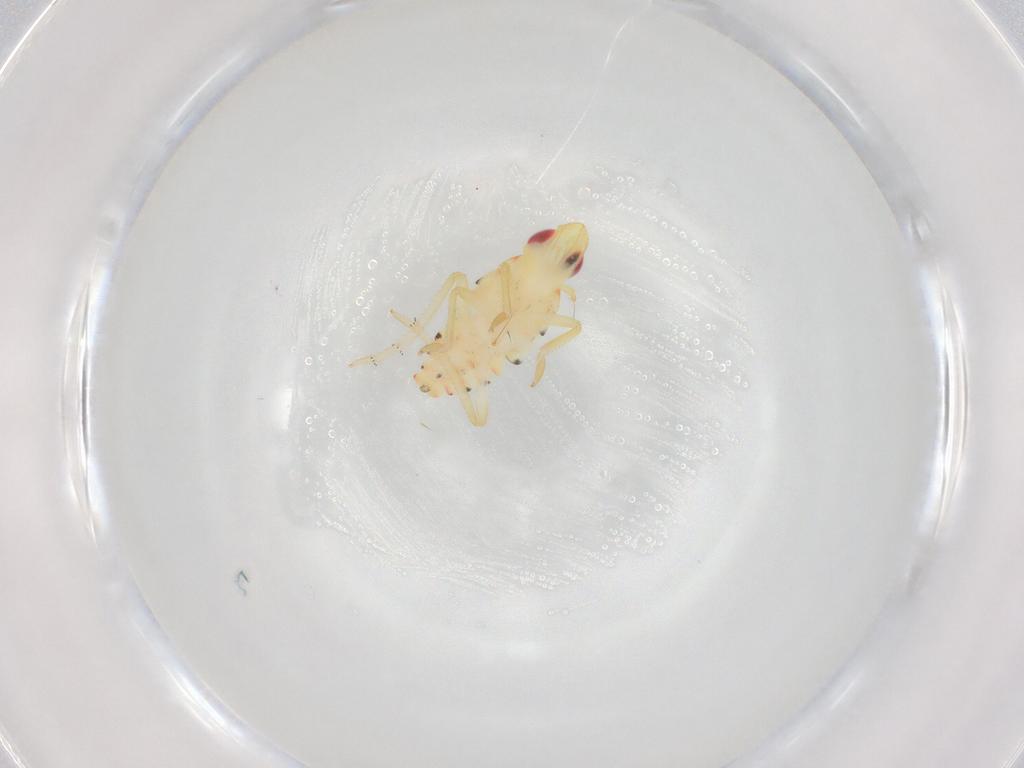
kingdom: Animalia
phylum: Arthropoda
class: Insecta
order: Hemiptera
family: Tropiduchidae
